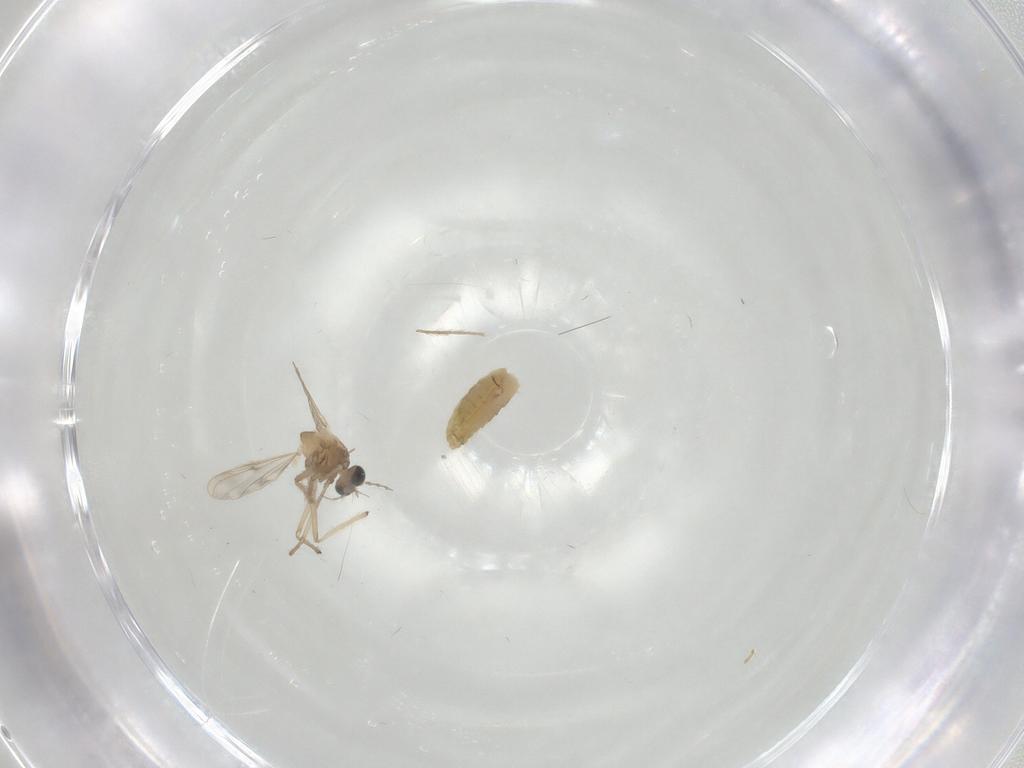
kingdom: Animalia
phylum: Arthropoda
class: Insecta
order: Diptera
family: Chironomidae
